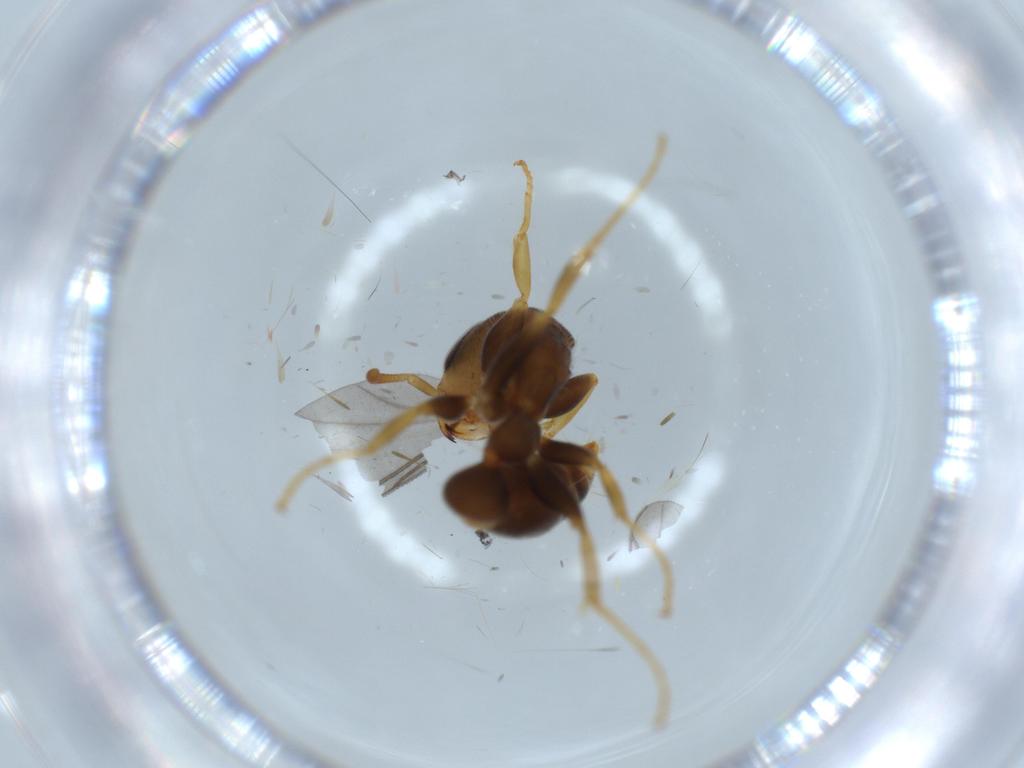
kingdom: Animalia
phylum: Arthropoda
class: Insecta
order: Hymenoptera
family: Formicidae
